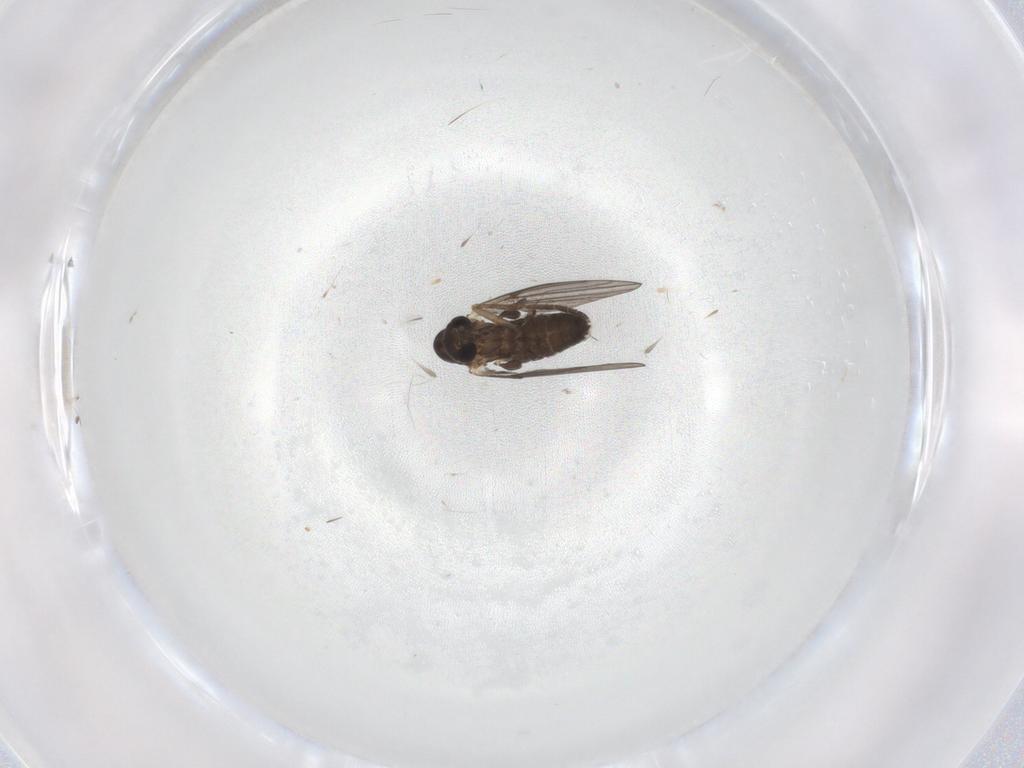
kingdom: Animalia
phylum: Arthropoda
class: Insecta
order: Diptera
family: Cecidomyiidae
